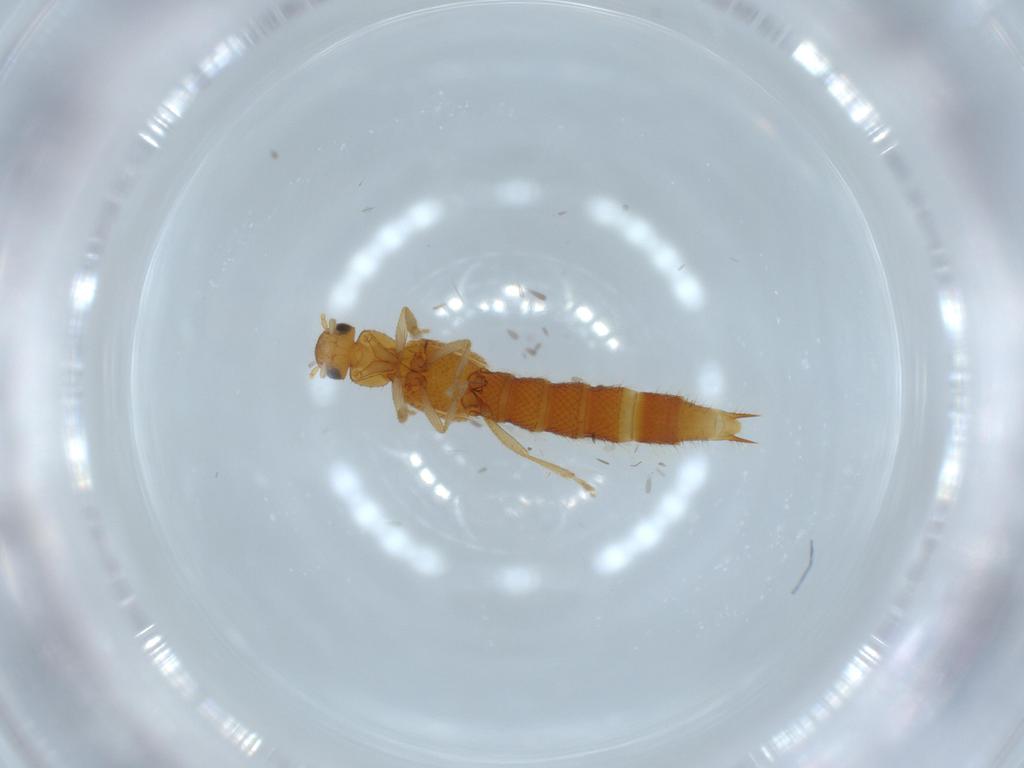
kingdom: Animalia
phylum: Arthropoda
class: Insecta
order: Coleoptera
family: Staphylinidae
